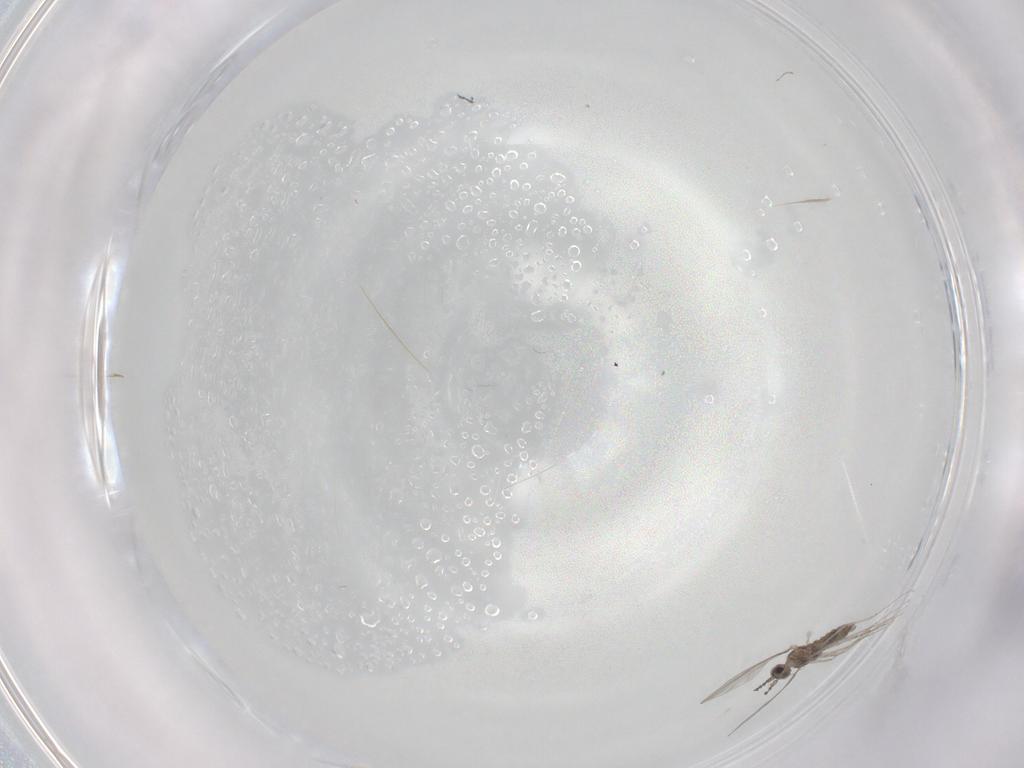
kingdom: Animalia
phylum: Arthropoda
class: Insecta
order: Diptera
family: Cecidomyiidae
